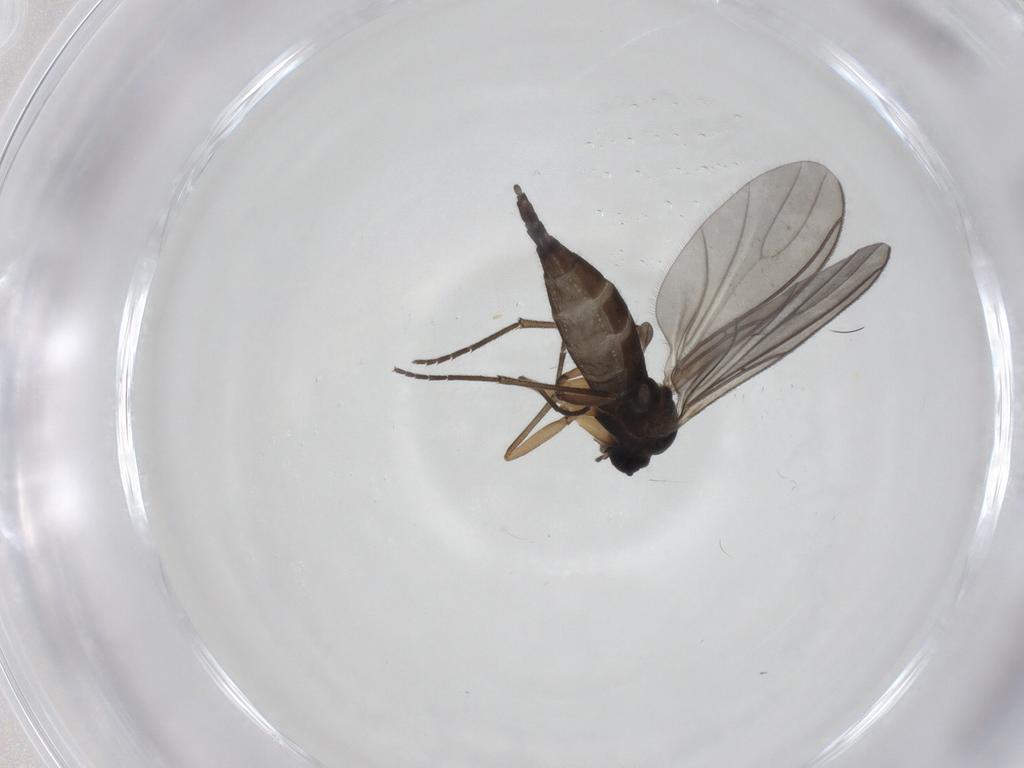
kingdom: Animalia
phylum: Arthropoda
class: Insecta
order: Diptera
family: Sciaridae
